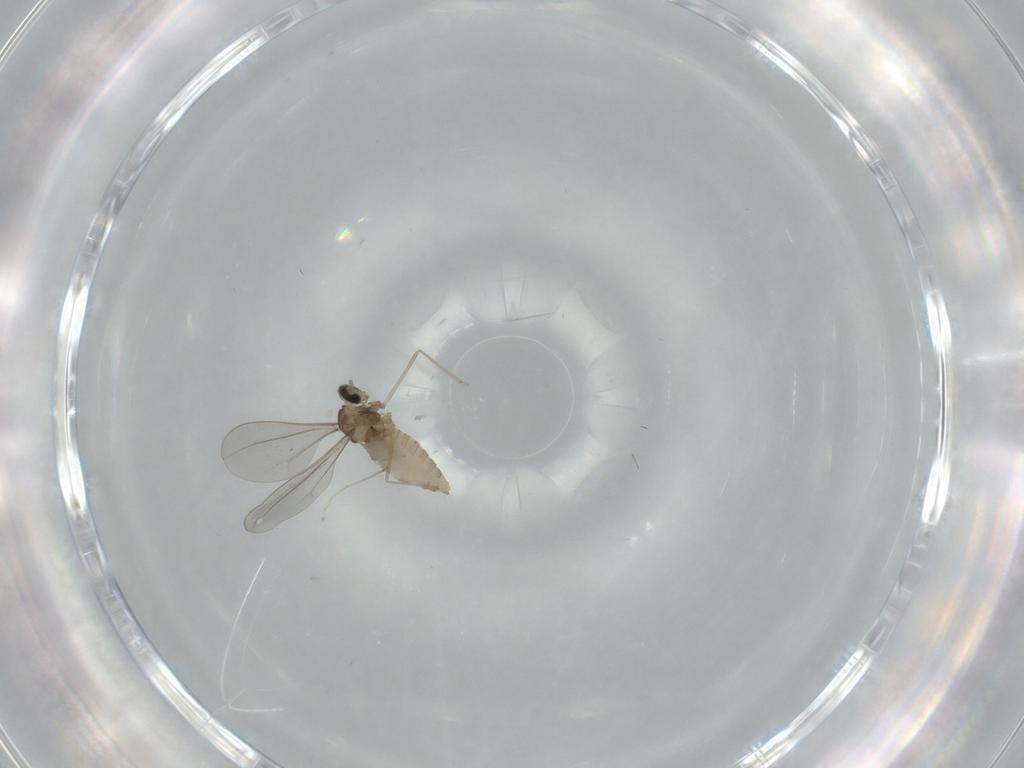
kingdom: Animalia
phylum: Arthropoda
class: Insecta
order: Diptera
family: Cecidomyiidae
